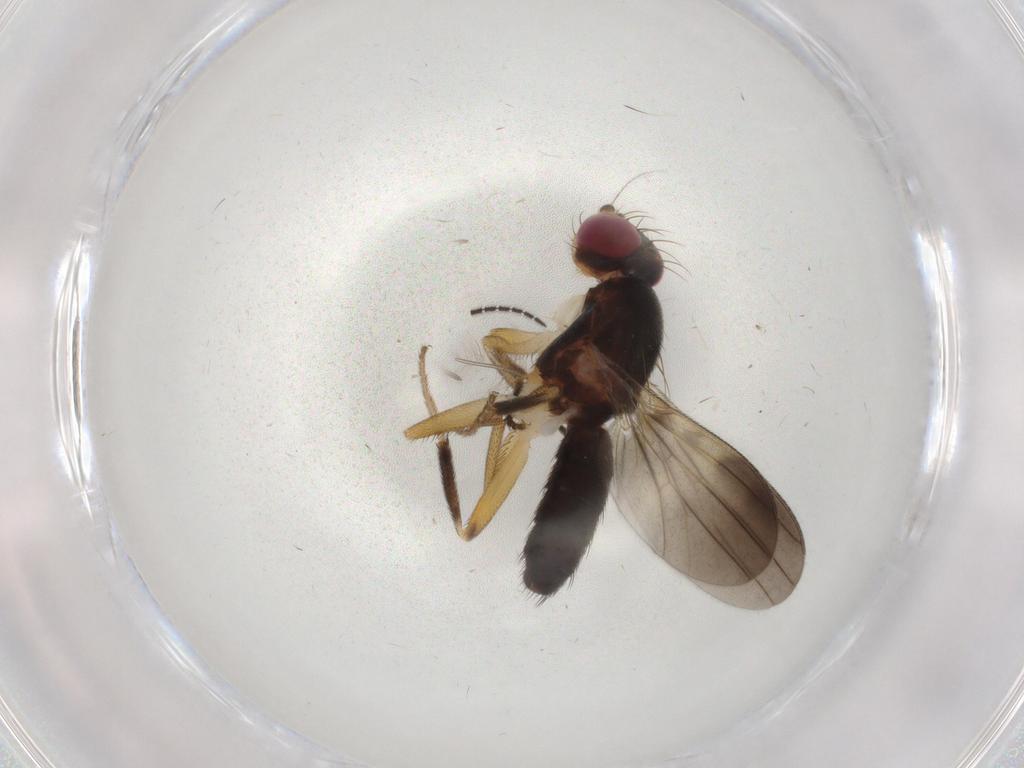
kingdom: Animalia
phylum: Arthropoda
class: Insecta
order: Diptera
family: Clusiidae
